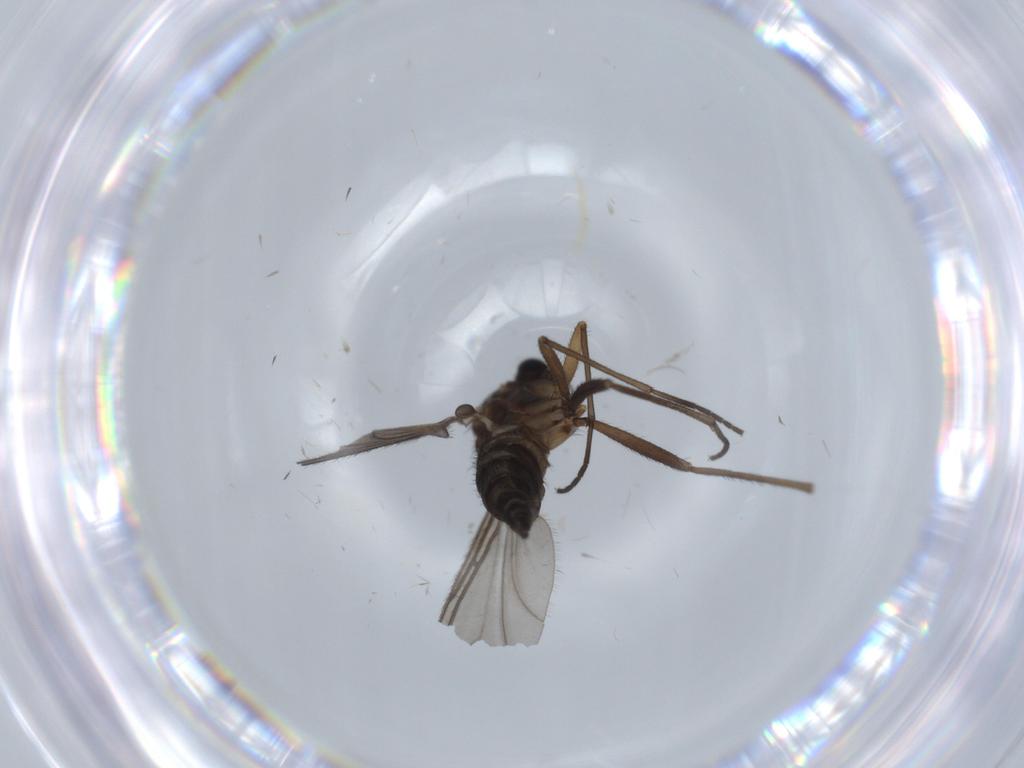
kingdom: Animalia
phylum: Arthropoda
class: Insecta
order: Diptera
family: Sciaridae
